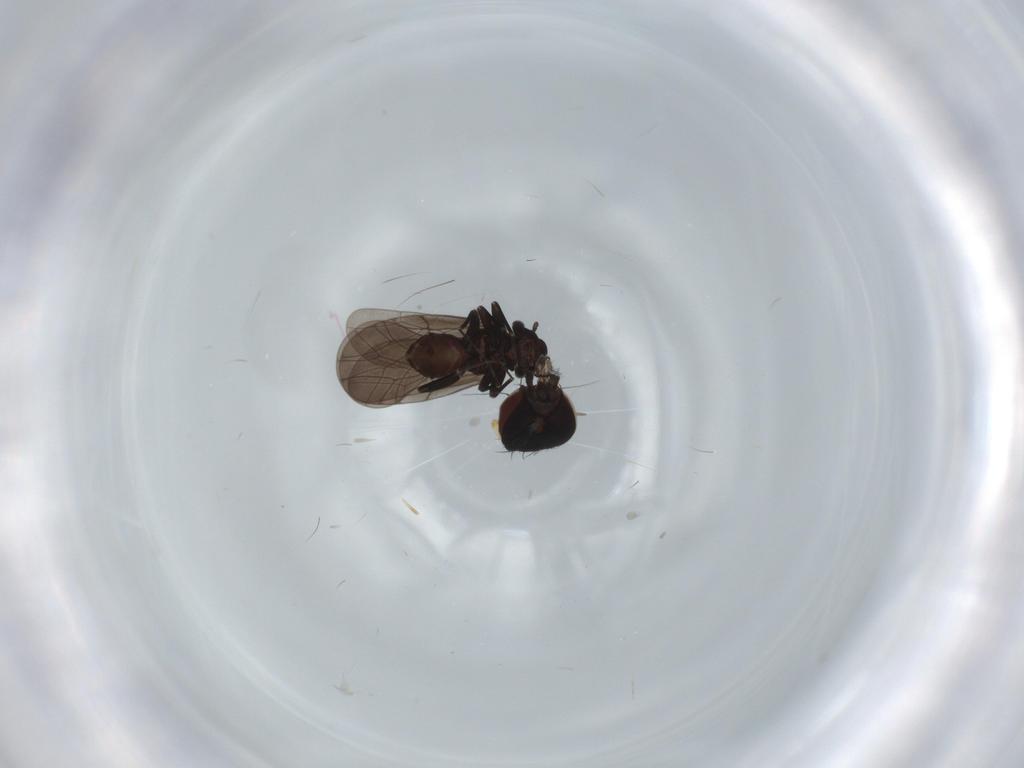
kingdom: Animalia
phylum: Arthropoda
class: Insecta
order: Psocodea
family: Lepidopsocidae
